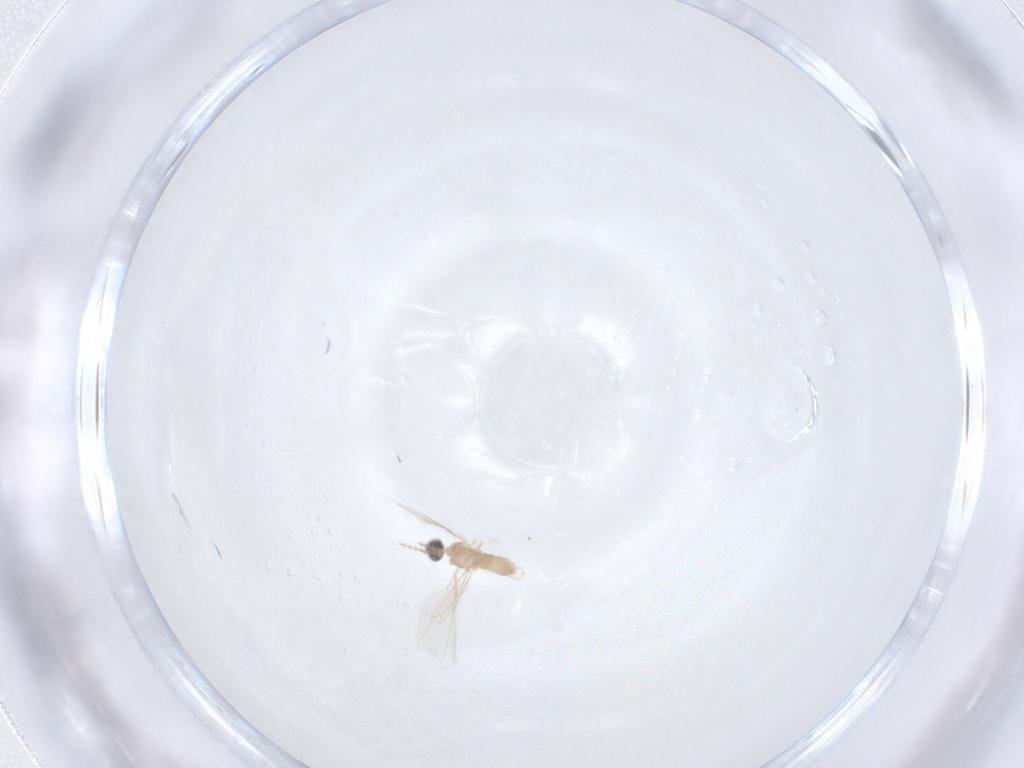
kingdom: Animalia
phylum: Arthropoda
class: Insecta
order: Diptera
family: Cecidomyiidae
